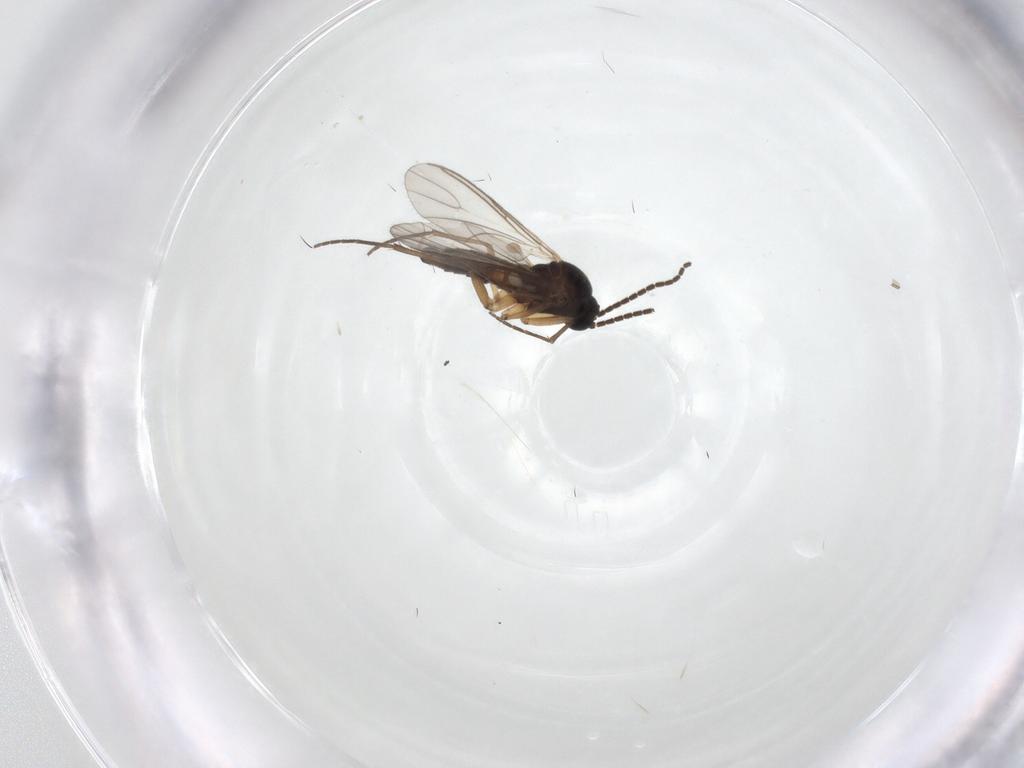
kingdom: Animalia
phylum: Arthropoda
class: Insecta
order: Diptera
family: Sciaridae
